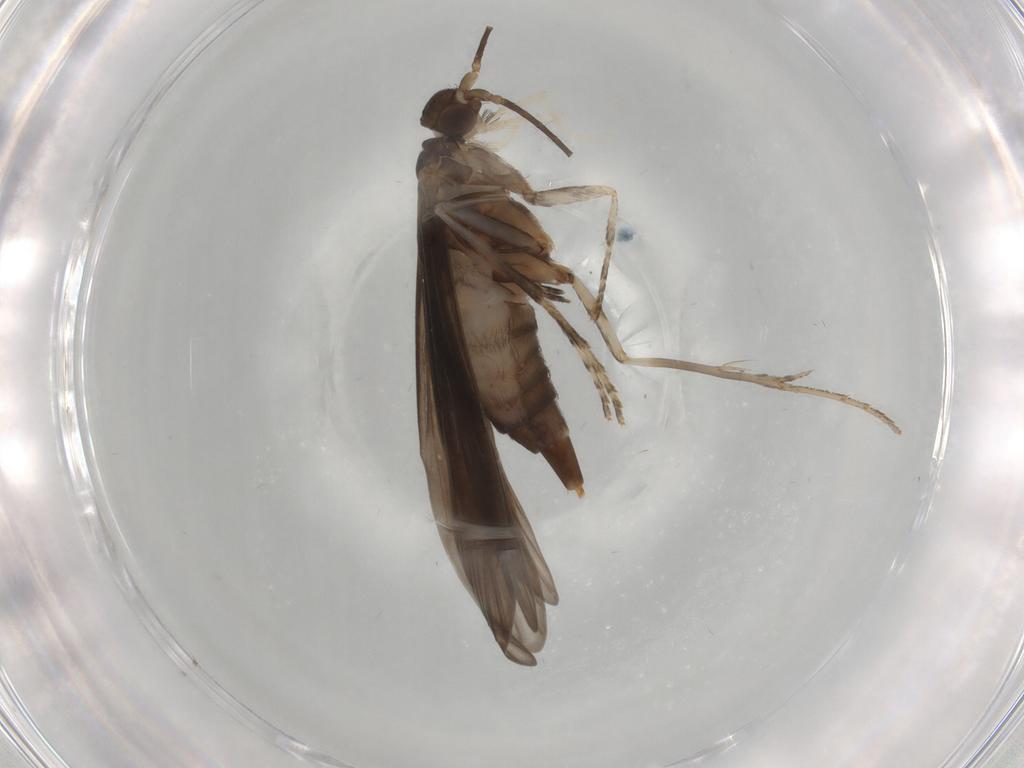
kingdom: Animalia
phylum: Arthropoda
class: Insecta
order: Trichoptera
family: Xiphocentronidae
